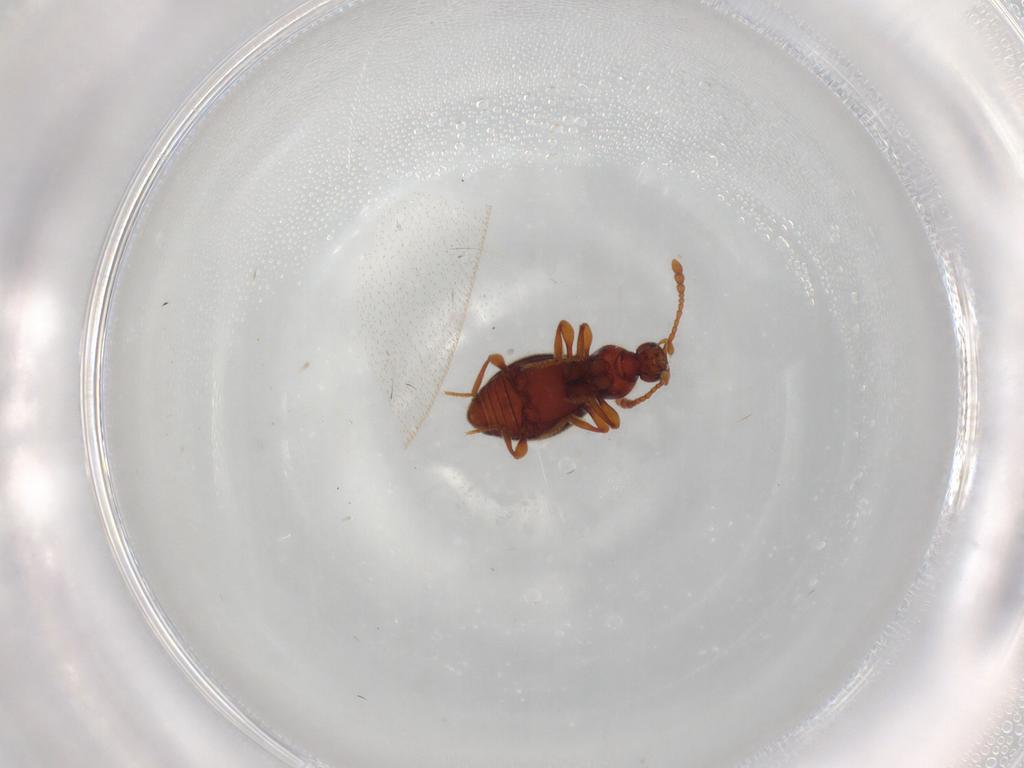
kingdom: Animalia
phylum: Arthropoda
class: Insecta
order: Coleoptera
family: Staphylinidae
